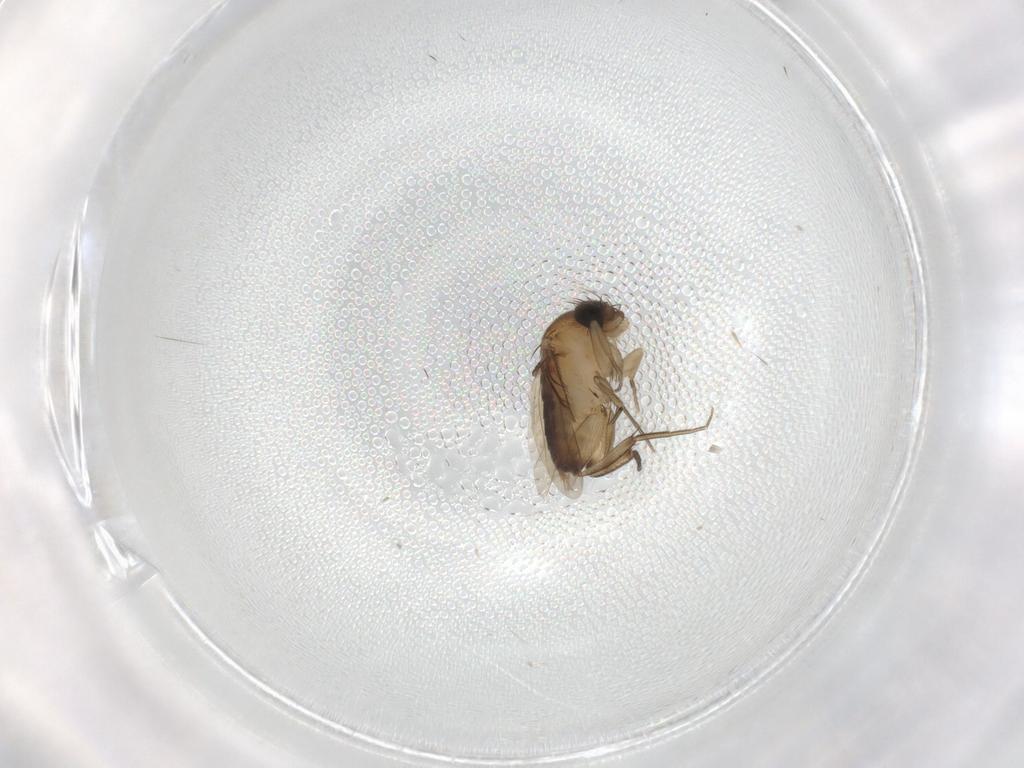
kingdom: Animalia
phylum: Arthropoda
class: Insecta
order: Diptera
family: Phoridae
